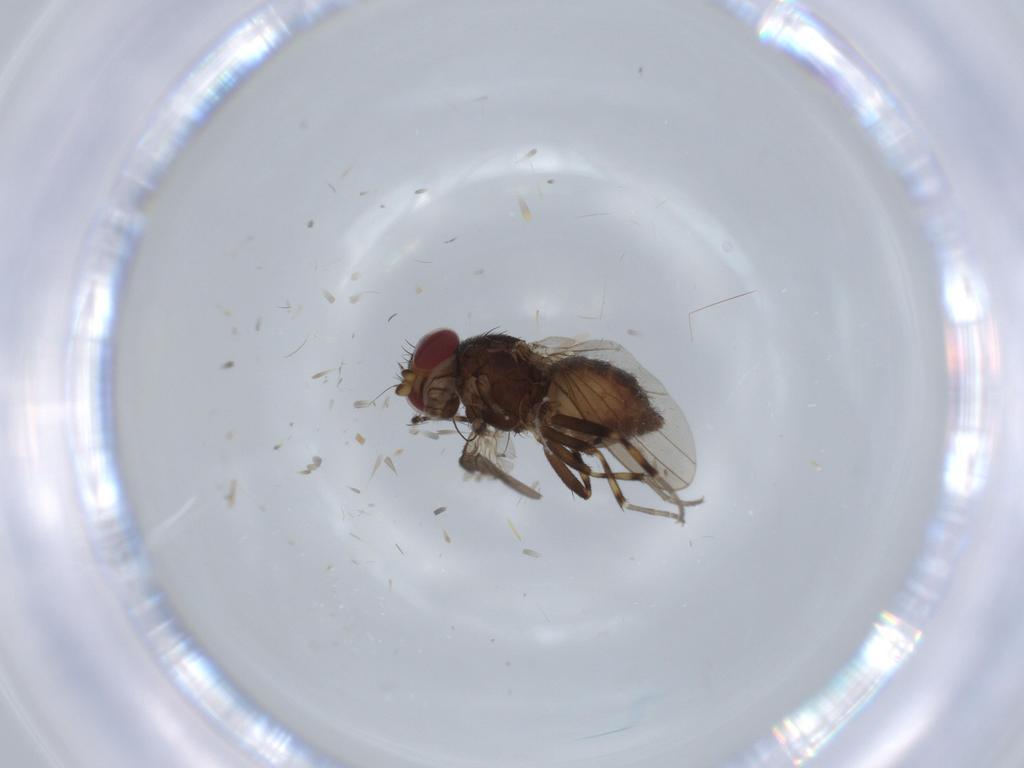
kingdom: Animalia
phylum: Arthropoda
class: Insecta
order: Diptera
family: Heleomyzidae
